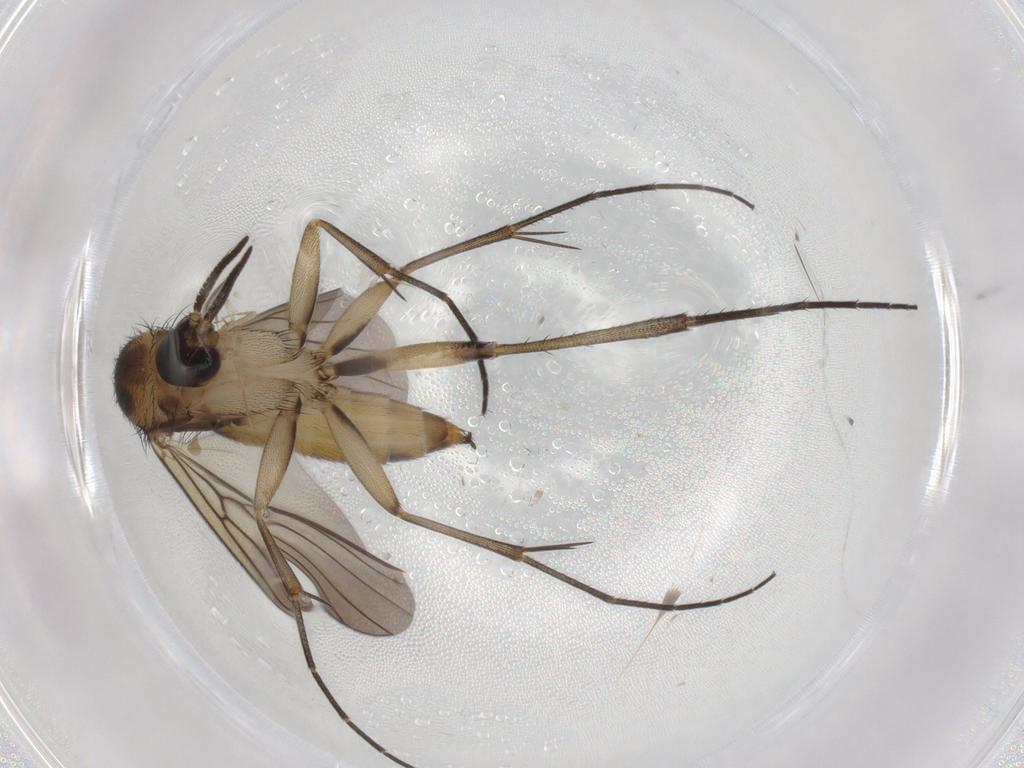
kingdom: Animalia
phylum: Arthropoda
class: Insecta
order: Diptera
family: Mycetophilidae
